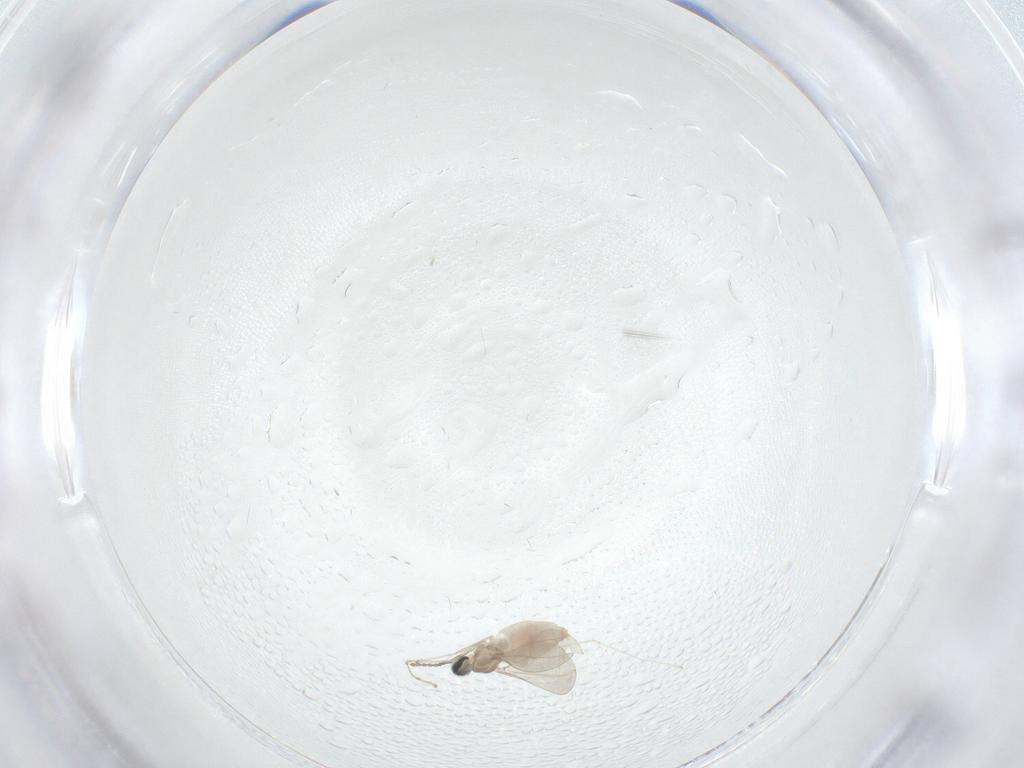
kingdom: Animalia
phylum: Arthropoda
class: Insecta
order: Diptera
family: Cecidomyiidae
